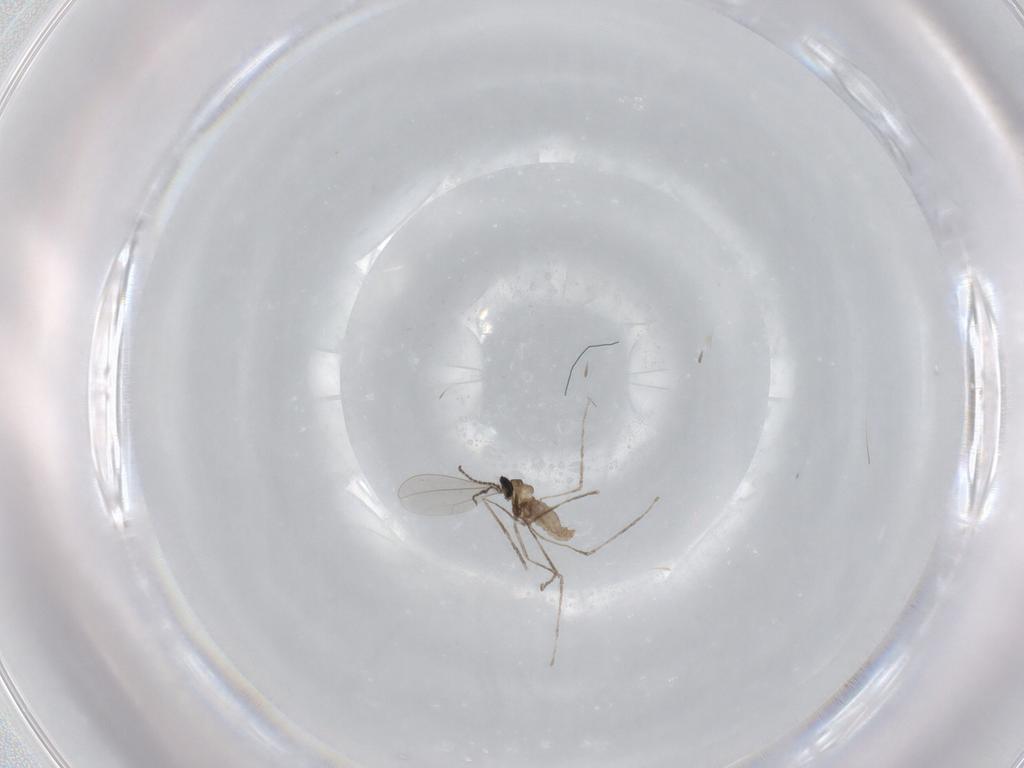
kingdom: Animalia
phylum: Arthropoda
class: Insecta
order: Diptera
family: Cecidomyiidae
